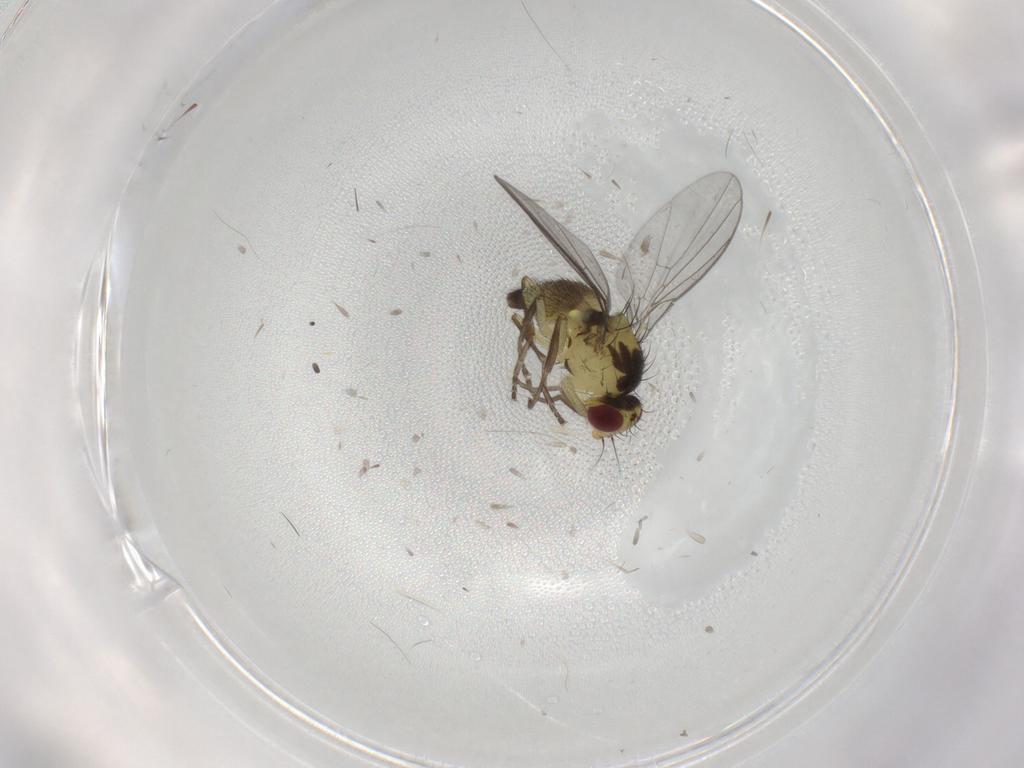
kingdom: Animalia
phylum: Arthropoda
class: Insecta
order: Diptera
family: Agromyzidae
